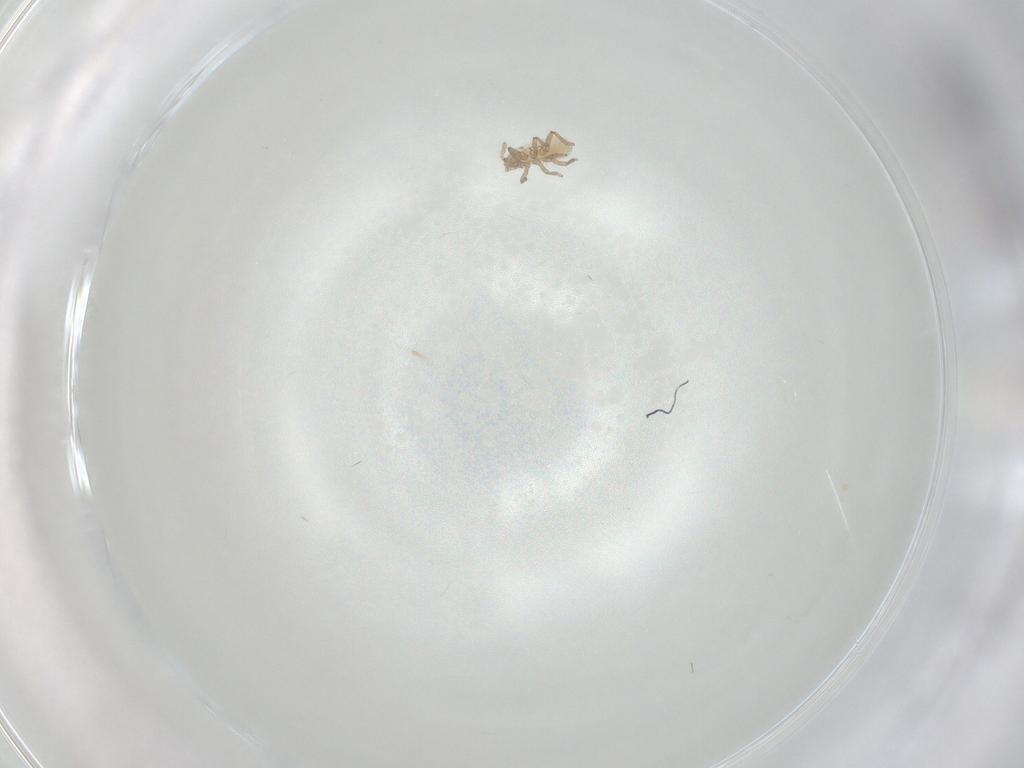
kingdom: Animalia
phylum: Arthropoda
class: Insecta
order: Hemiptera
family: Aphididae
